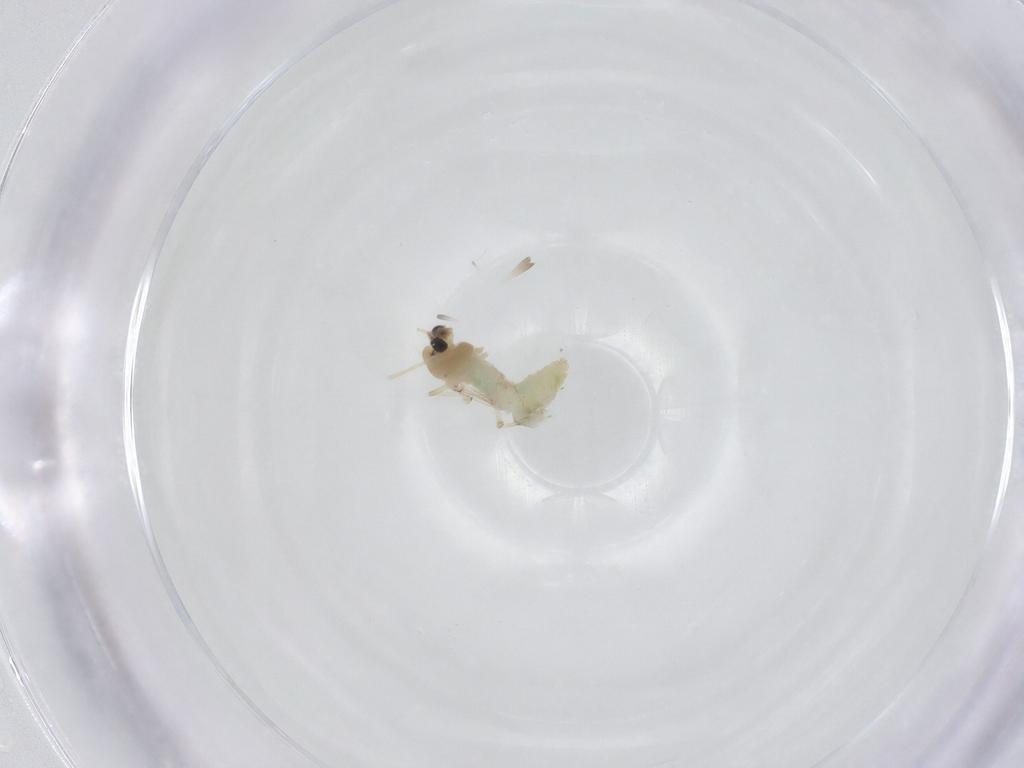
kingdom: Animalia
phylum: Arthropoda
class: Insecta
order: Diptera
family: Chironomidae
